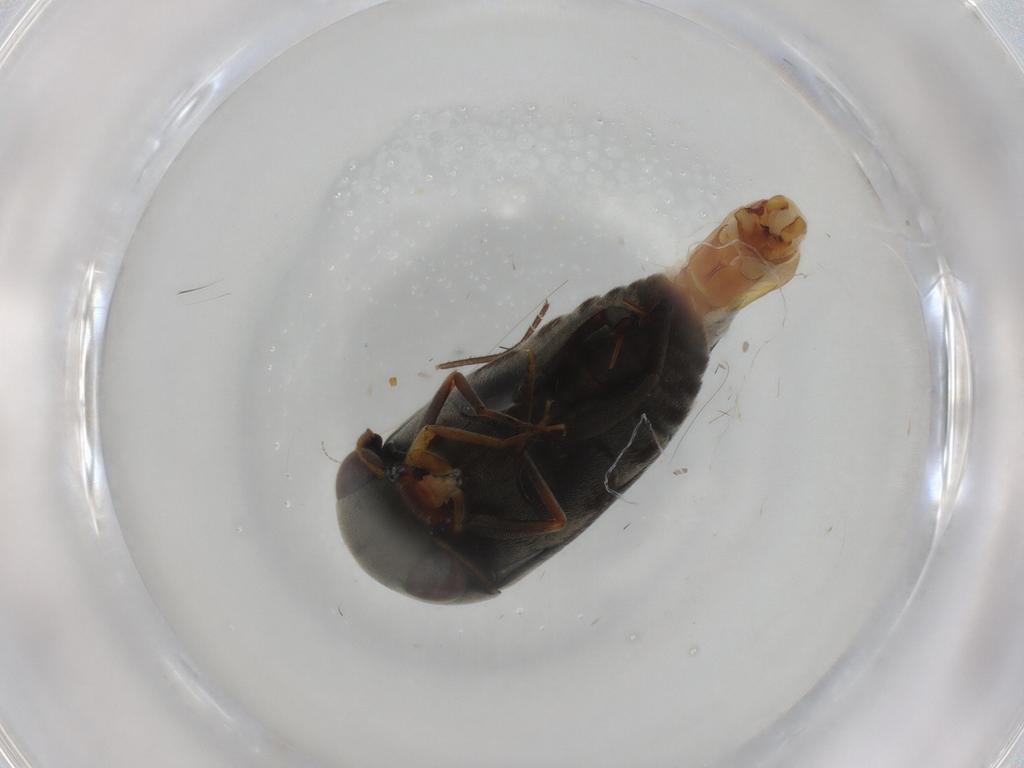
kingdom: Animalia
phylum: Arthropoda
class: Insecta
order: Coleoptera
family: Mordellidae
